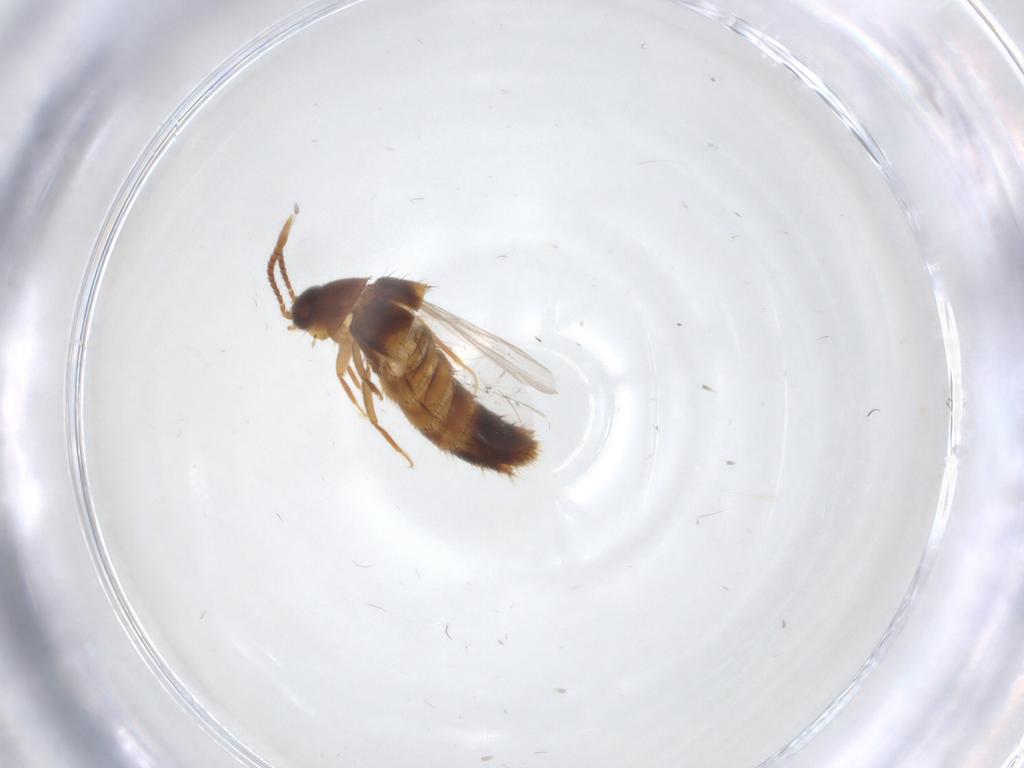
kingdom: Animalia
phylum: Arthropoda
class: Insecta
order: Coleoptera
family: Staphylinidae
